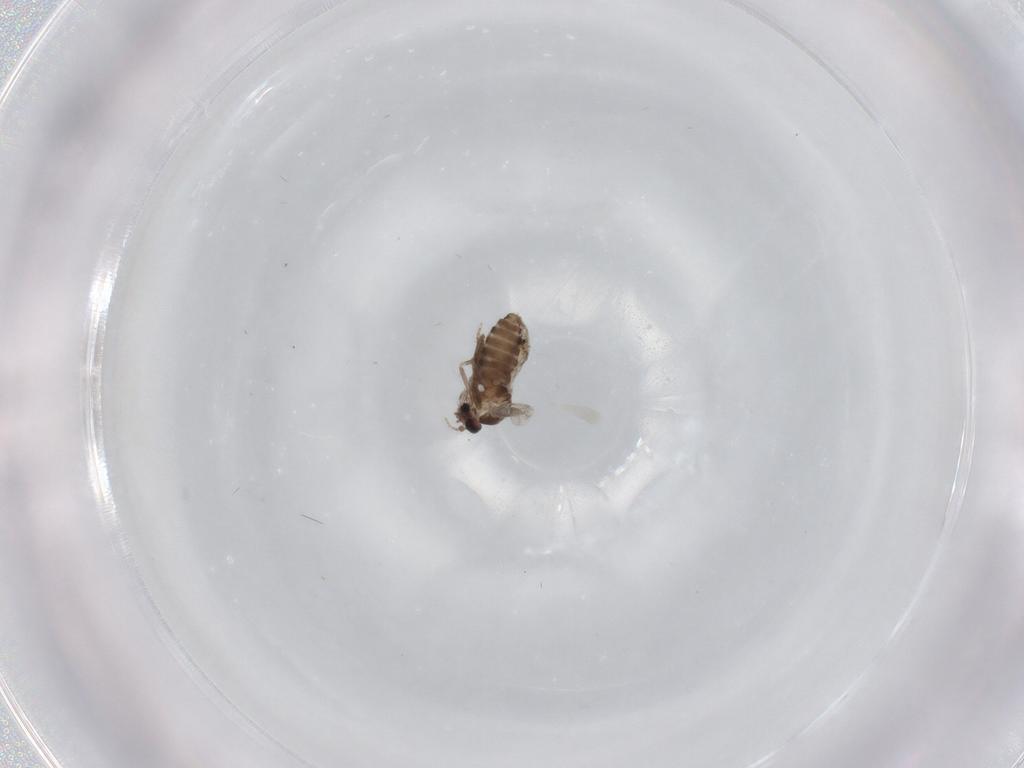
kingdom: Animalia
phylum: Arthropoda
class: Insecta
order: Diptera
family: Ceratopogonidae
